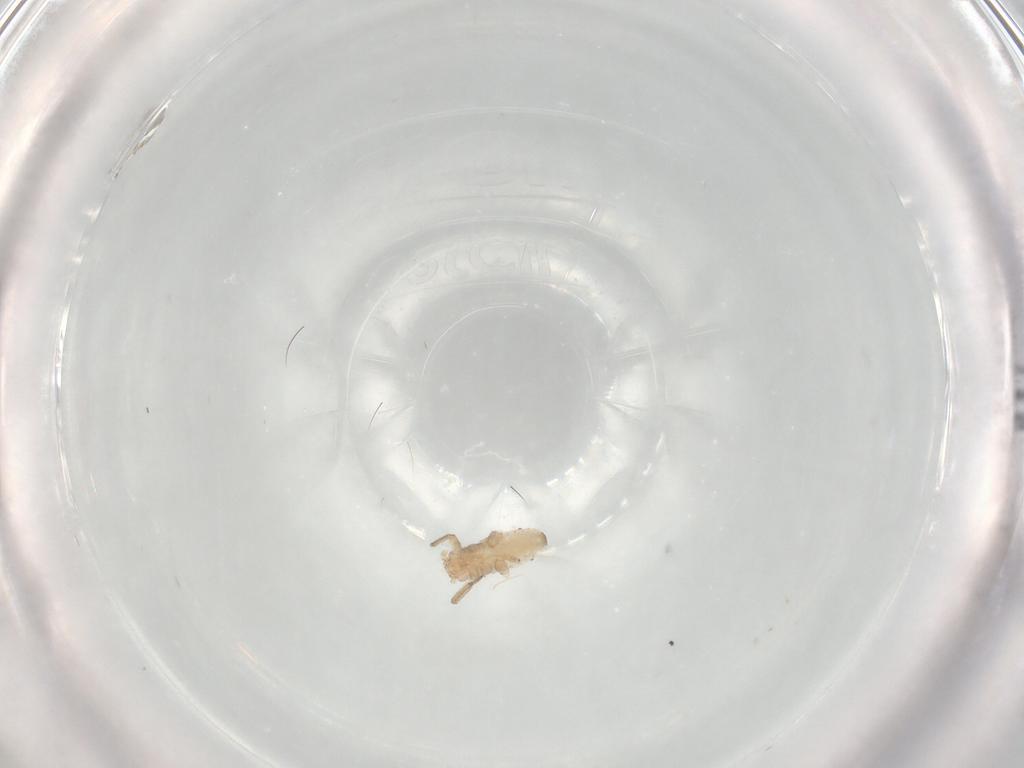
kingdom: Animalia
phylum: Arthropoda
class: Insecta
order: Hemiptera
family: Aphididae
